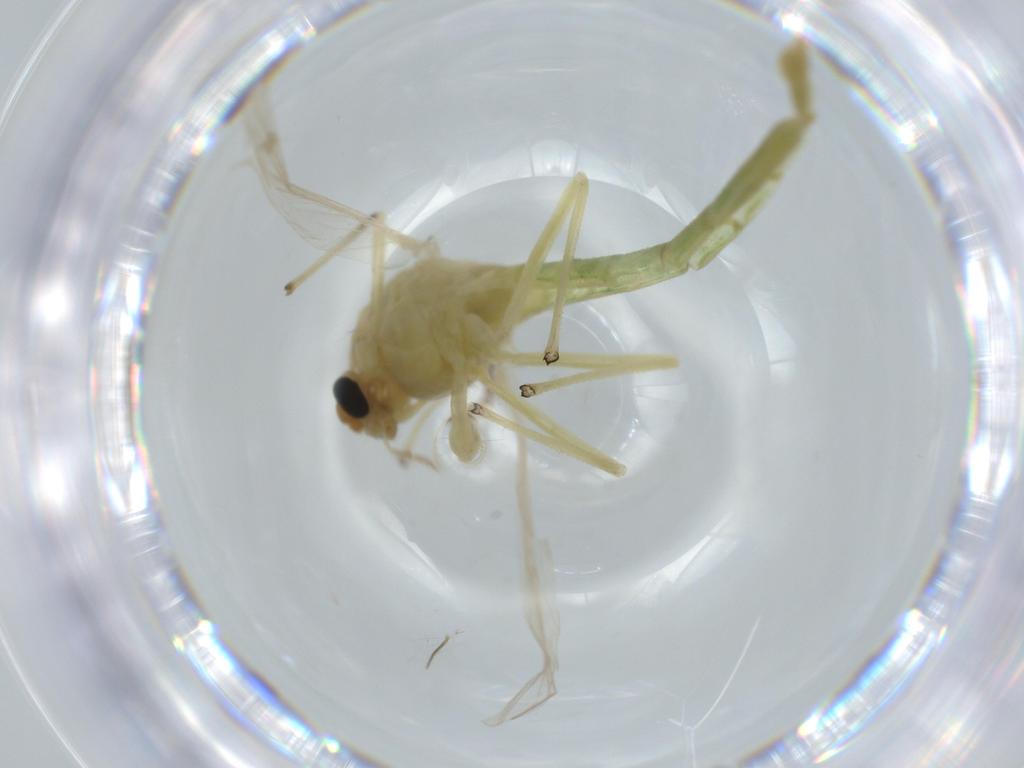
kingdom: Animalia
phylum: Arthropoda
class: Insecta
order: Diptera
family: Chironomidae
